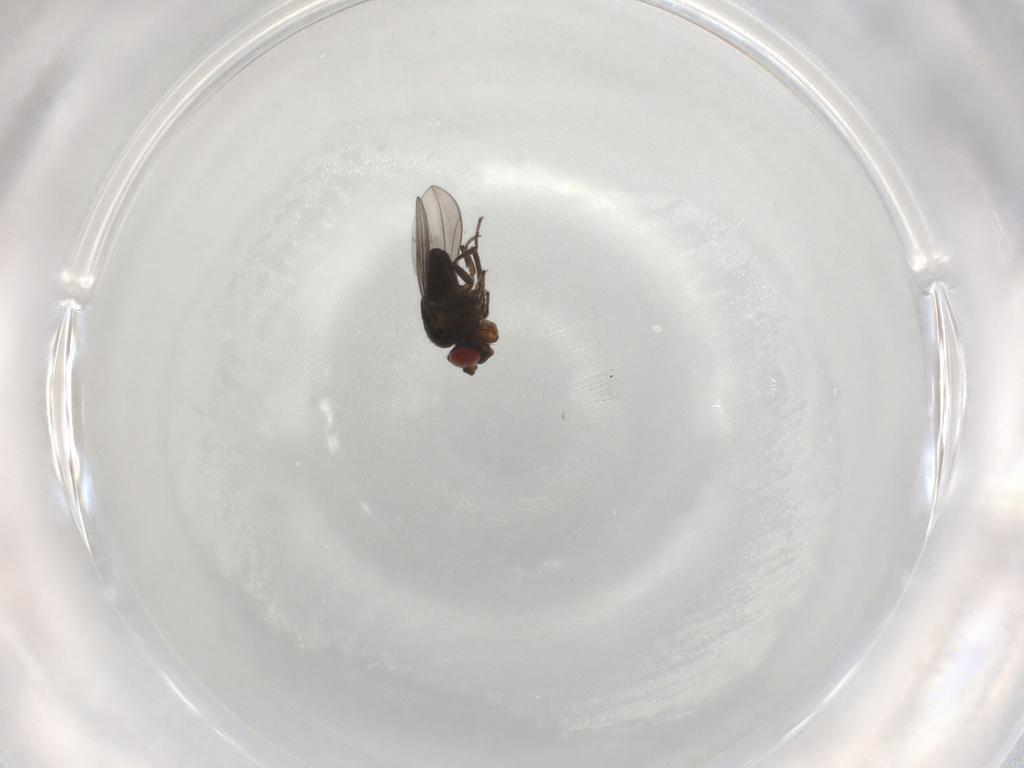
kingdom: Animalia
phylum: Arthropoda
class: Insecta
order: Diptera
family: Ephydridae
